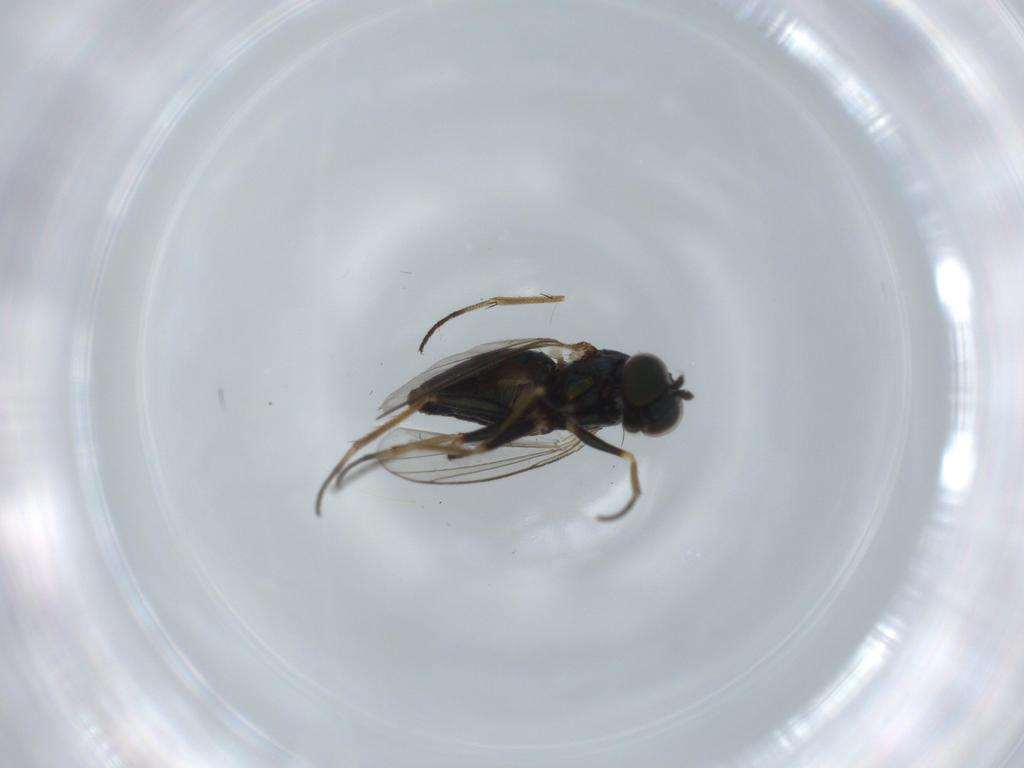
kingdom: Animalia
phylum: Arthropoda
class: Insecta
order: Diptera
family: Dolichopodidae
